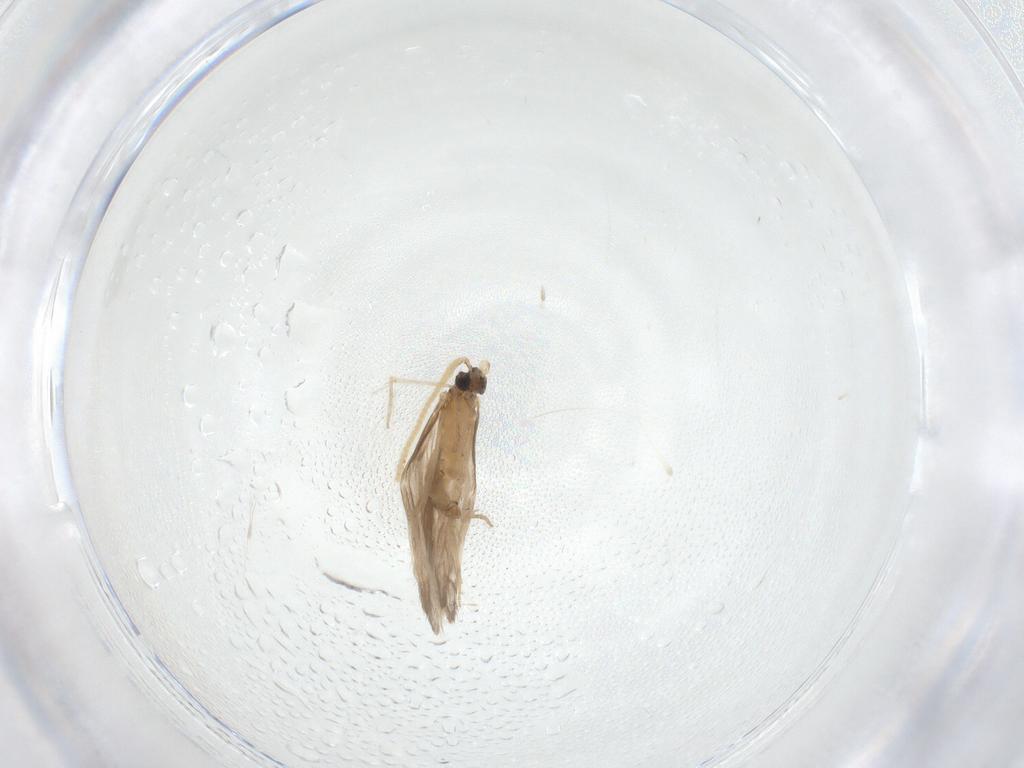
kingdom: Animalia
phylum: Arthropoda
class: Insecta
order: Trichoptera
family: Hydroptilidae
